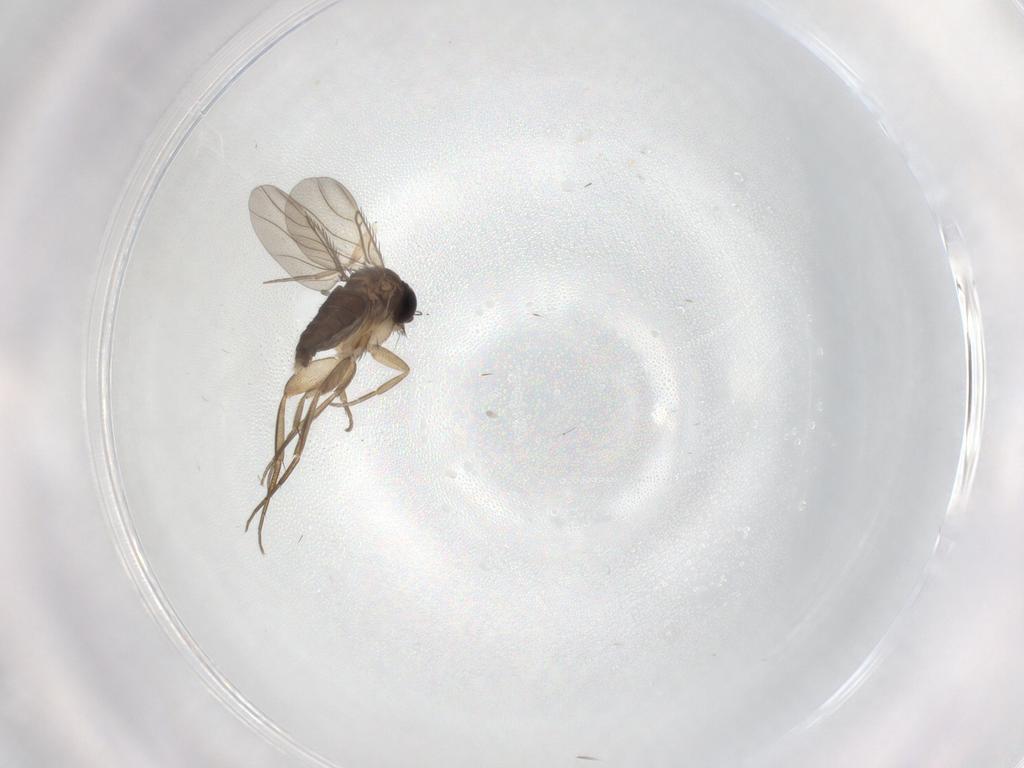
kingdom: Animalia
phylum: Arthropoda
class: Insecta
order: Diptera
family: Phoridae
